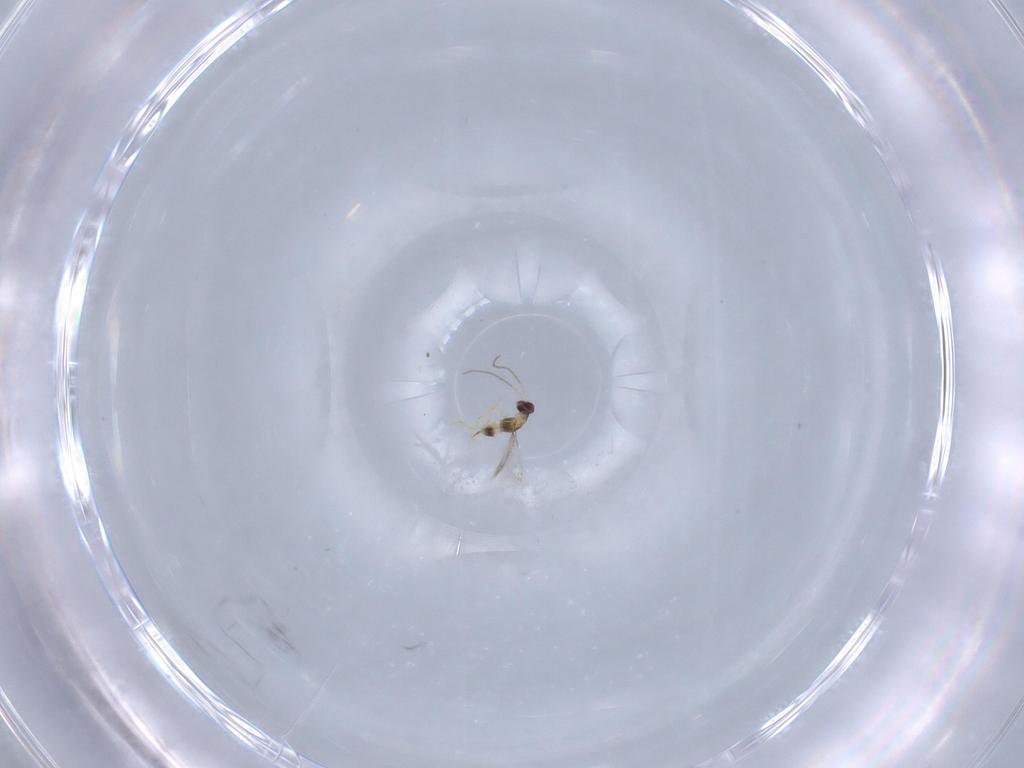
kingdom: Animalia
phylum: Arthropoda
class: Insecta
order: Hymenoptera
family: Mymaridae
